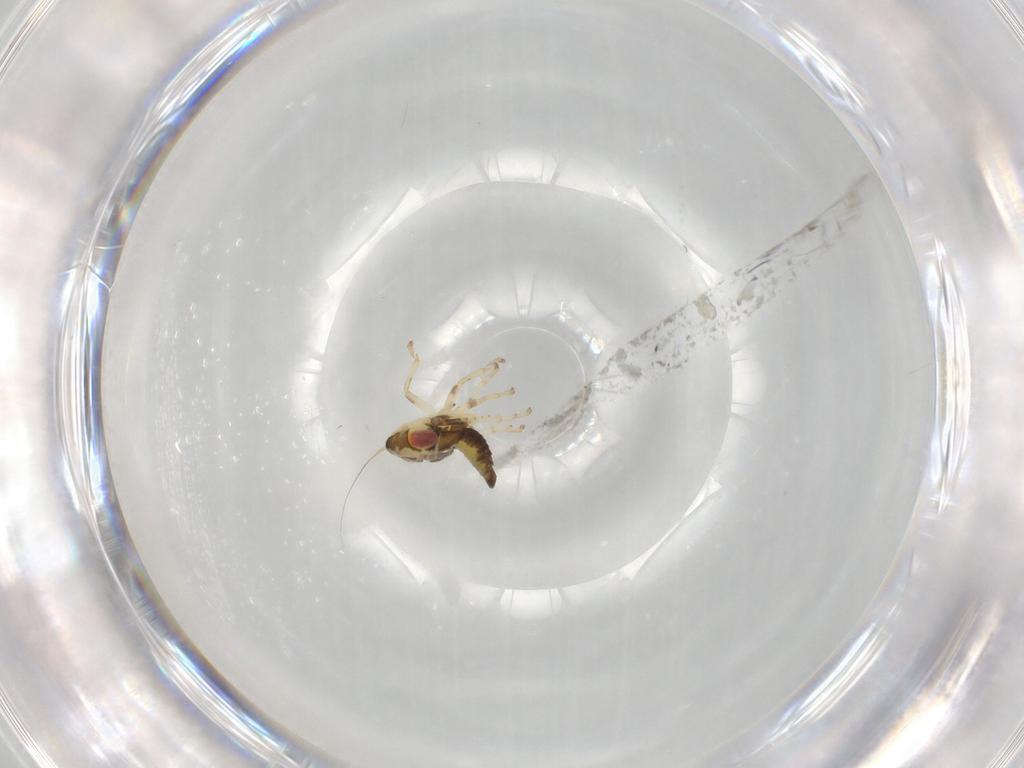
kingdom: Animalia
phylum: Arthropoda
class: Insecta
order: Hemiptera
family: Cicadellidae
